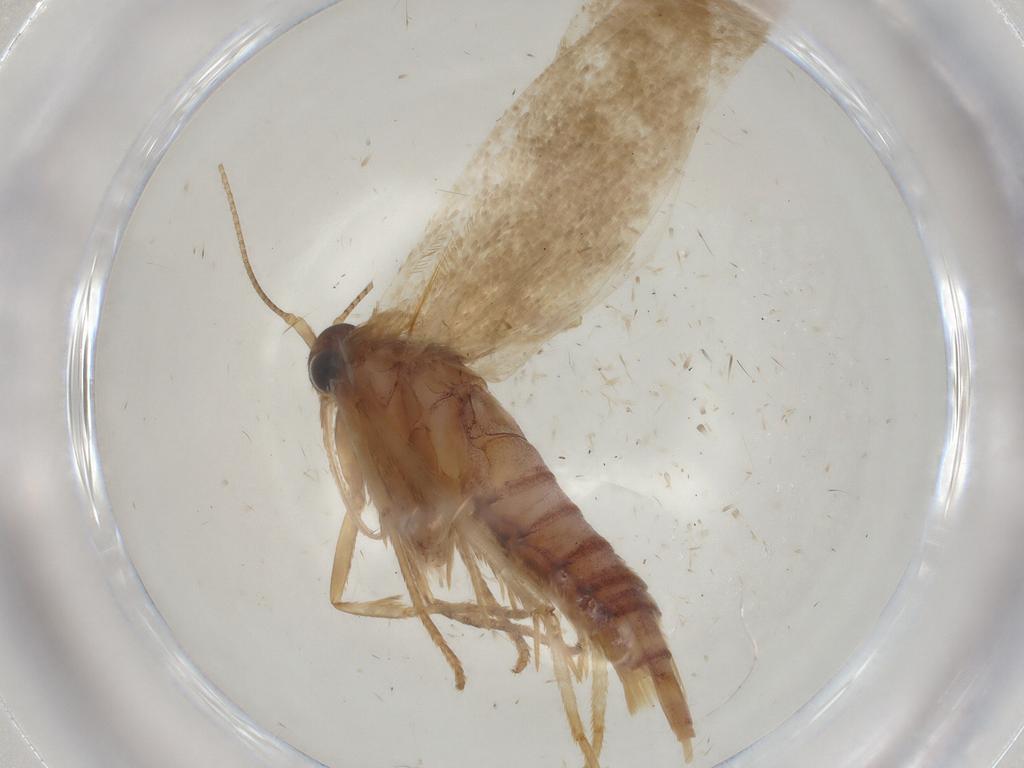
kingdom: Animalia
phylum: Arthropoda
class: Insecta
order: Lepidoptera
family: Blastobasidae
